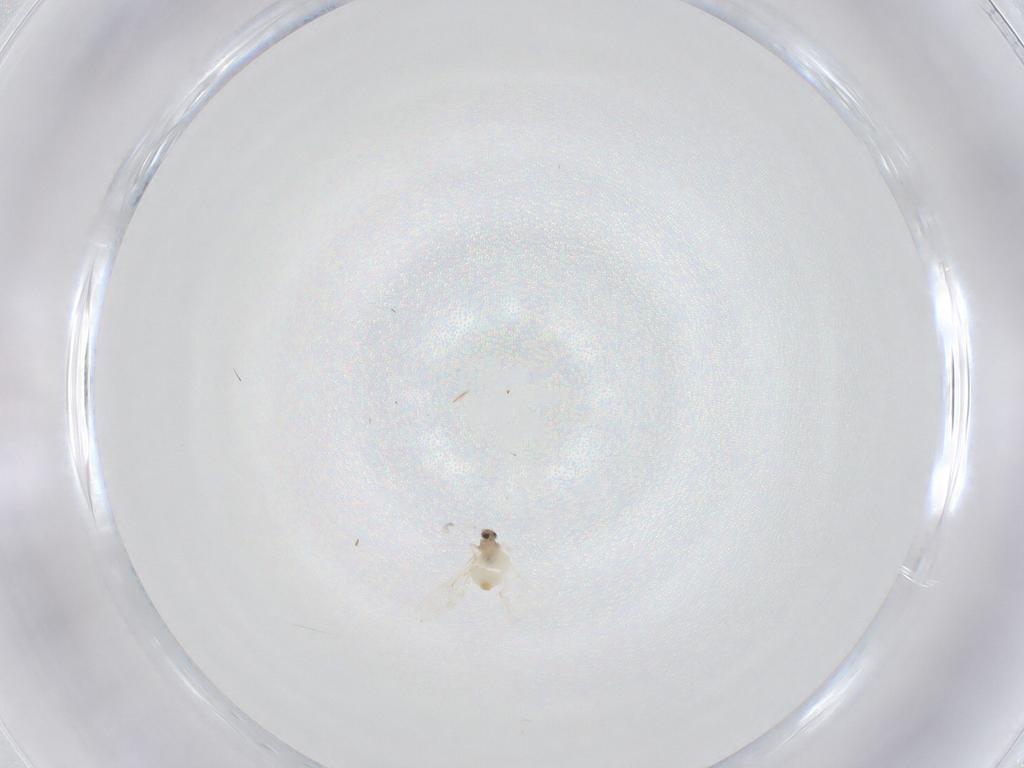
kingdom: Animalia
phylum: Arthropoda
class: Insecta
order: Diptera
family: Cecidomyiidae
